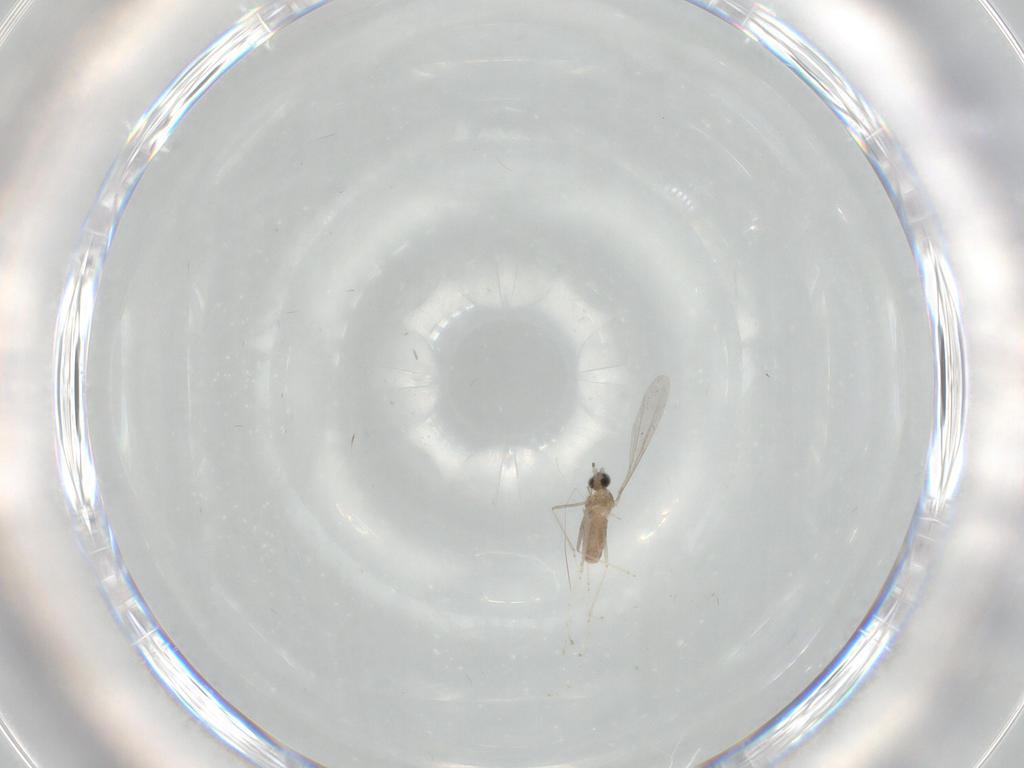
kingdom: Animalia
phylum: Arthropoda
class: Insecta
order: Diptera
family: Cecidomyiidae
